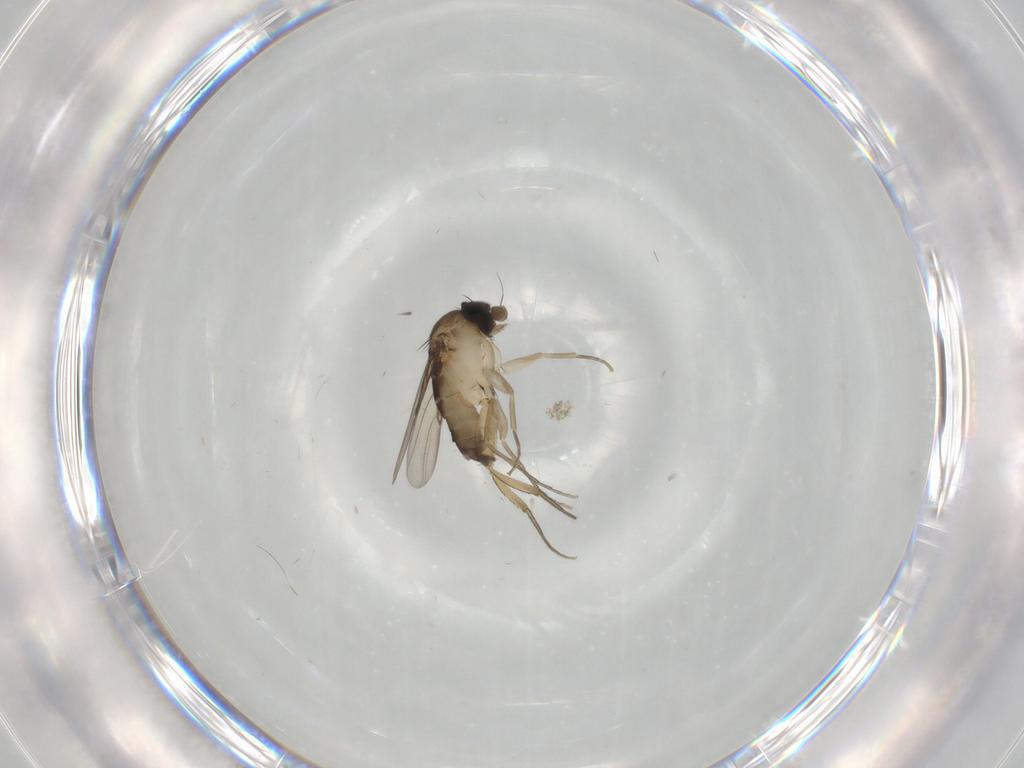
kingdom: Animalia
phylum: Arthropoda
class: Insecta
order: Diptera
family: Phoridae
